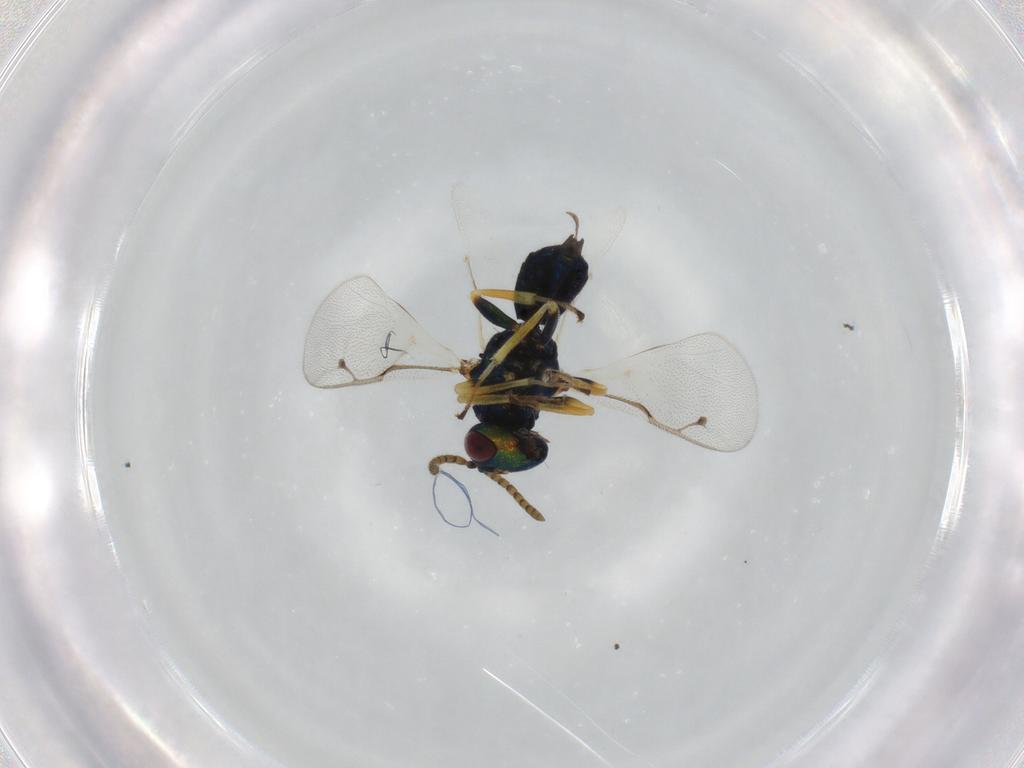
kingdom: Animalia
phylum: Arthropoda
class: Insecta
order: Hymenoptera
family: Pteromalidae
